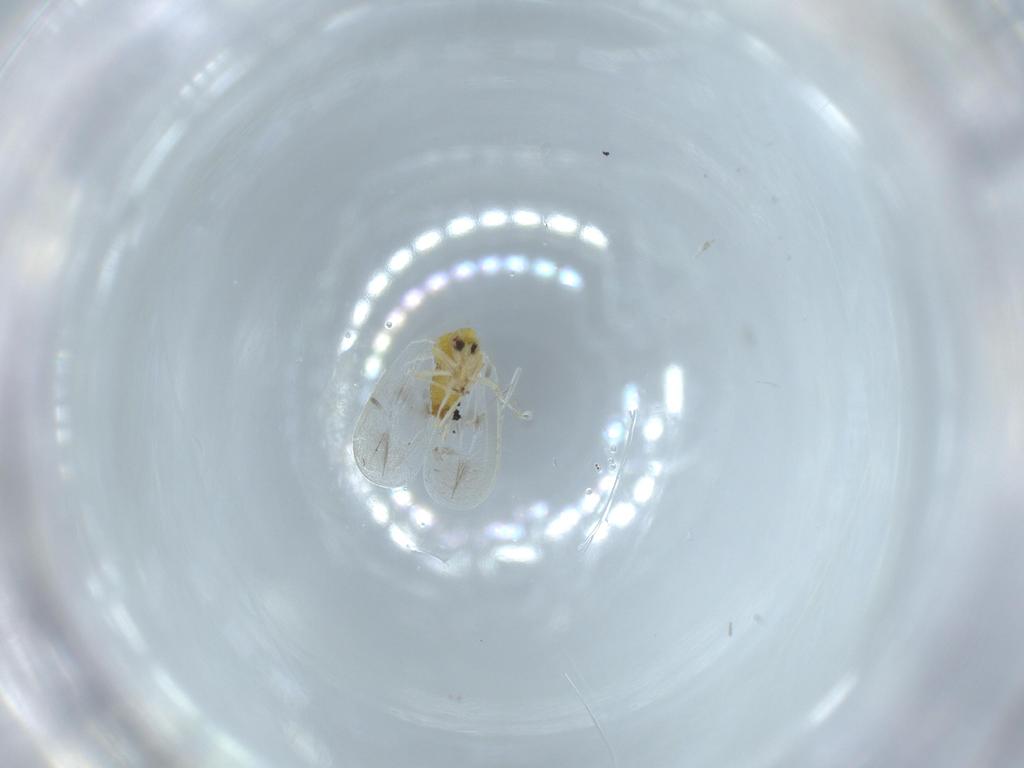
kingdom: Animalia
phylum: Arthropoda
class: Insecta
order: Hemiptera
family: Aleyrodidae
